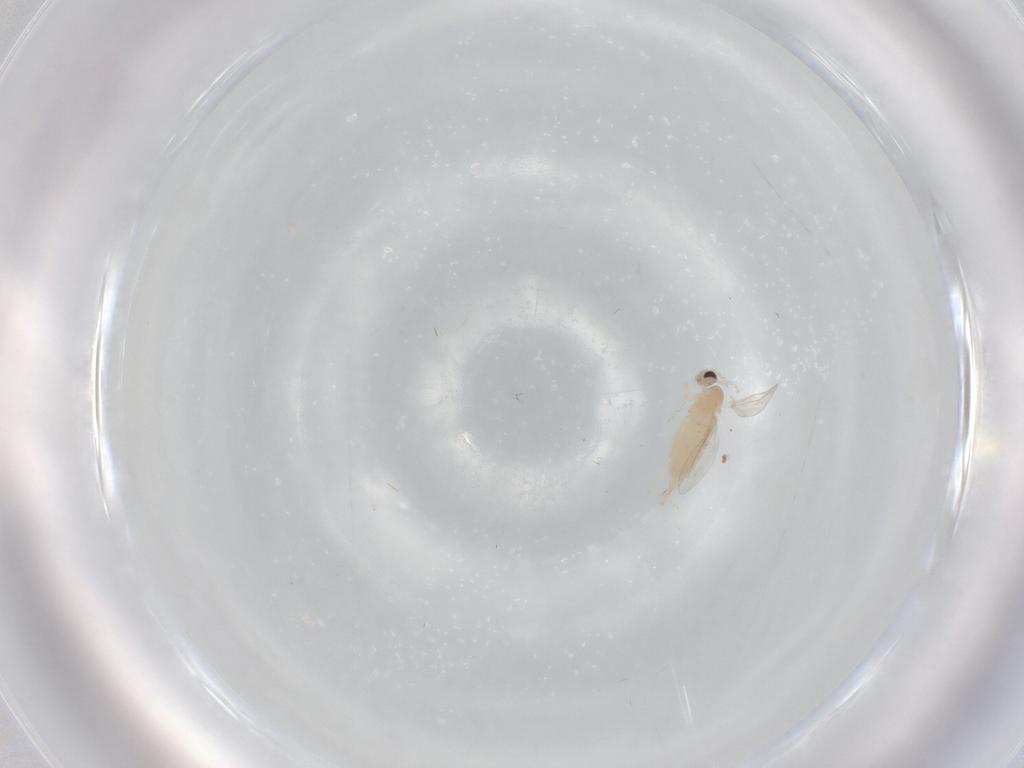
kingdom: Animalia
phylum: Arthropoda
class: Insecta
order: Diptera
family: Cecidomyiidae
